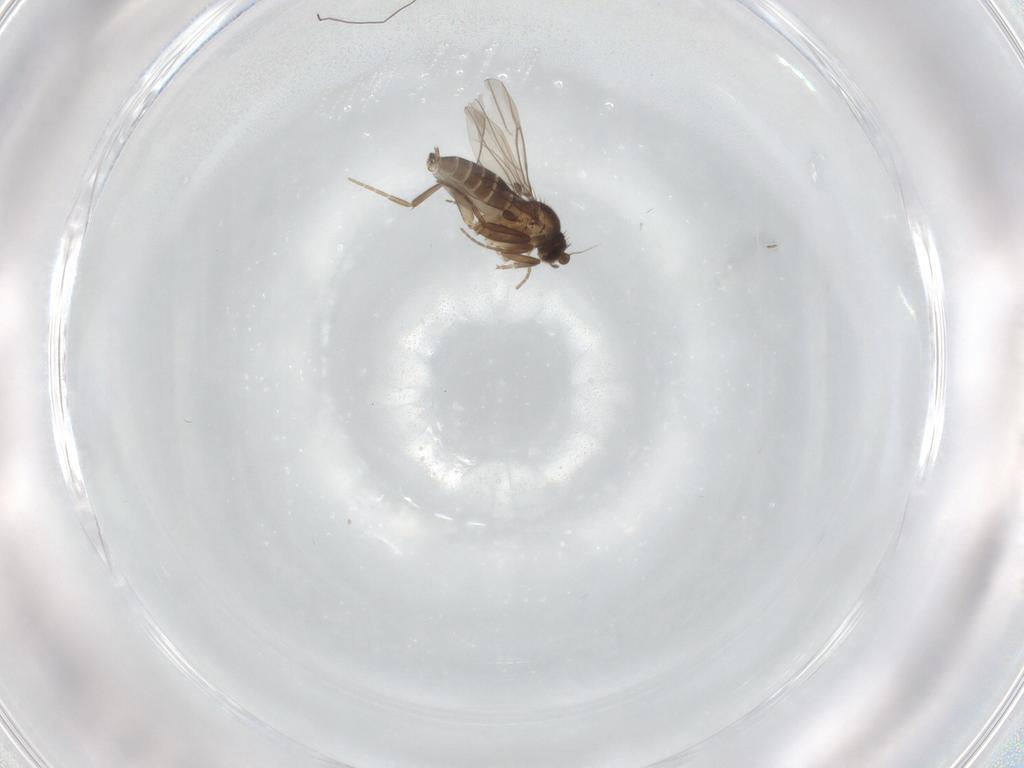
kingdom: Animalia
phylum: Arthropoda
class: Insecta
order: Diptera
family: Phoridae
